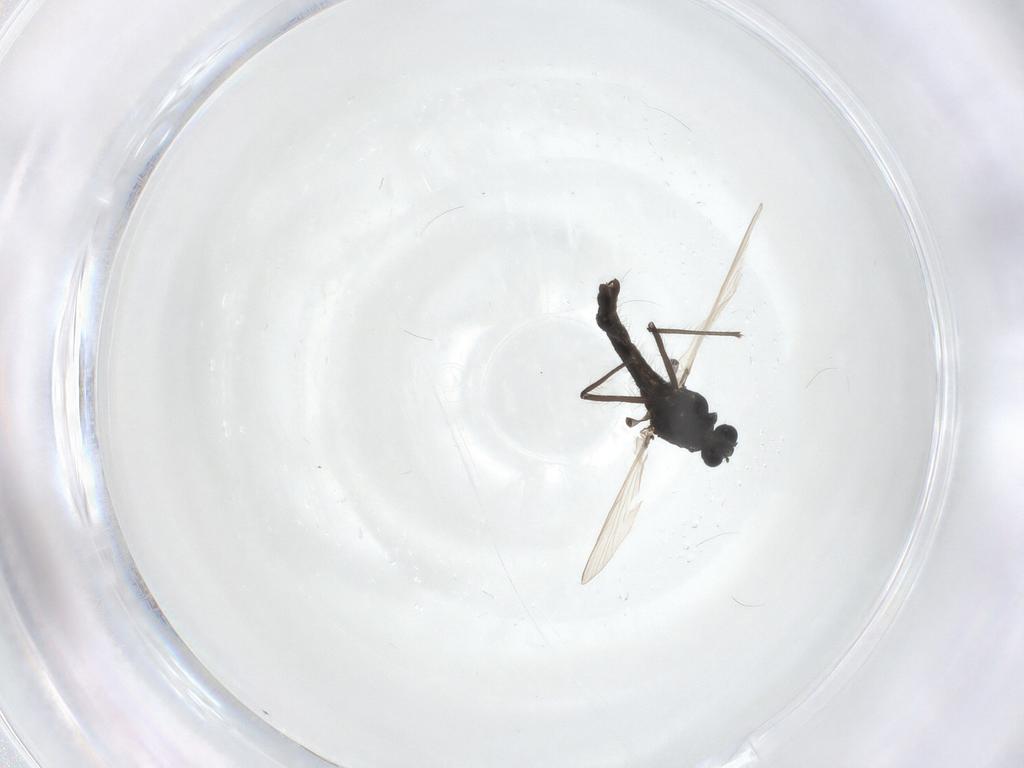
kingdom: Animalia
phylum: Arthropoda
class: Insecta
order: Diptera
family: Chironomidae
